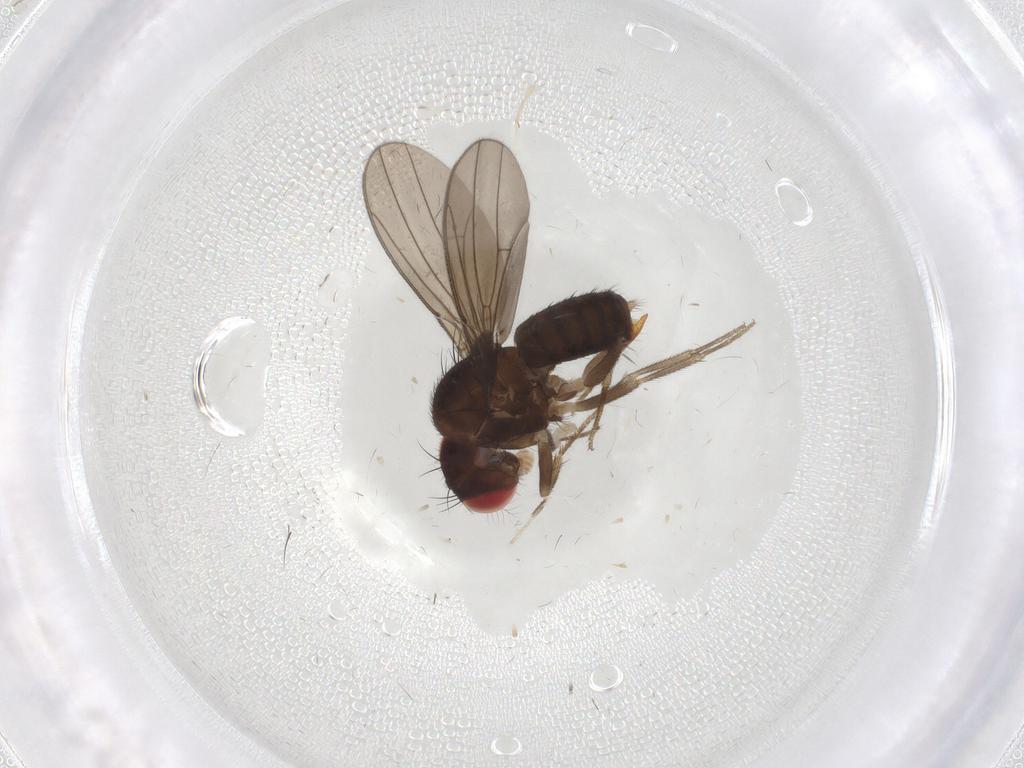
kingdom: Animalia
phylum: Arthropoda
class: Insecta
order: Diptera
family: Drosophilidae
